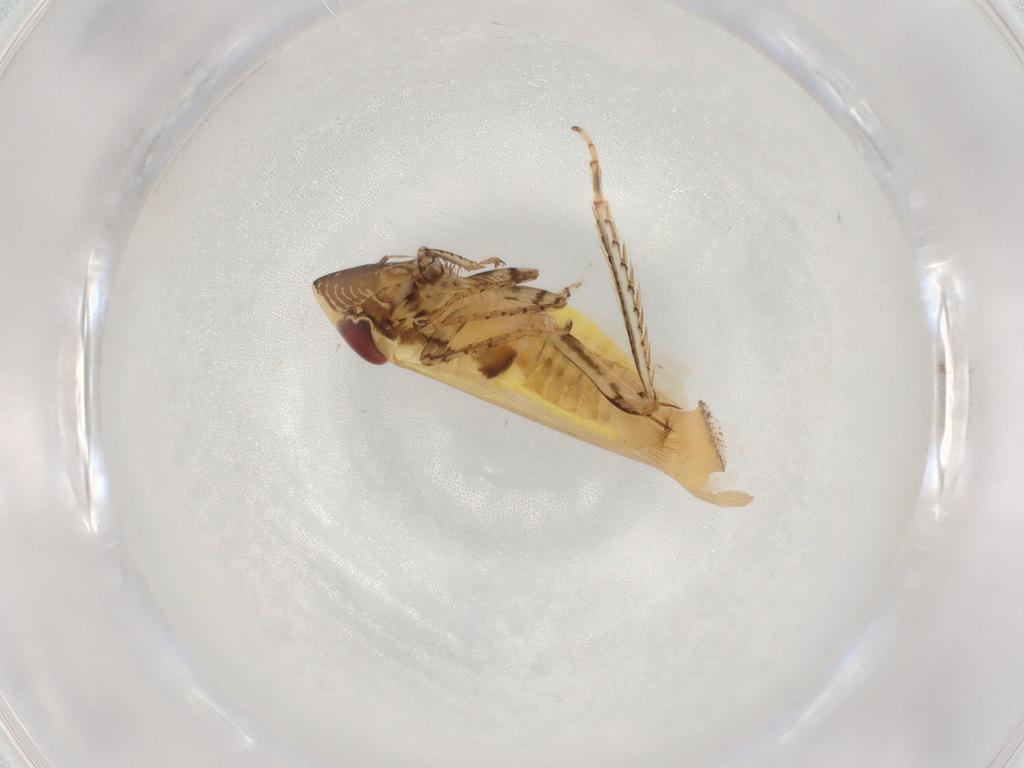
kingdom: Animalia
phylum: Arthropoda
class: Insecta
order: Hemiptera
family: Cicadellidae
